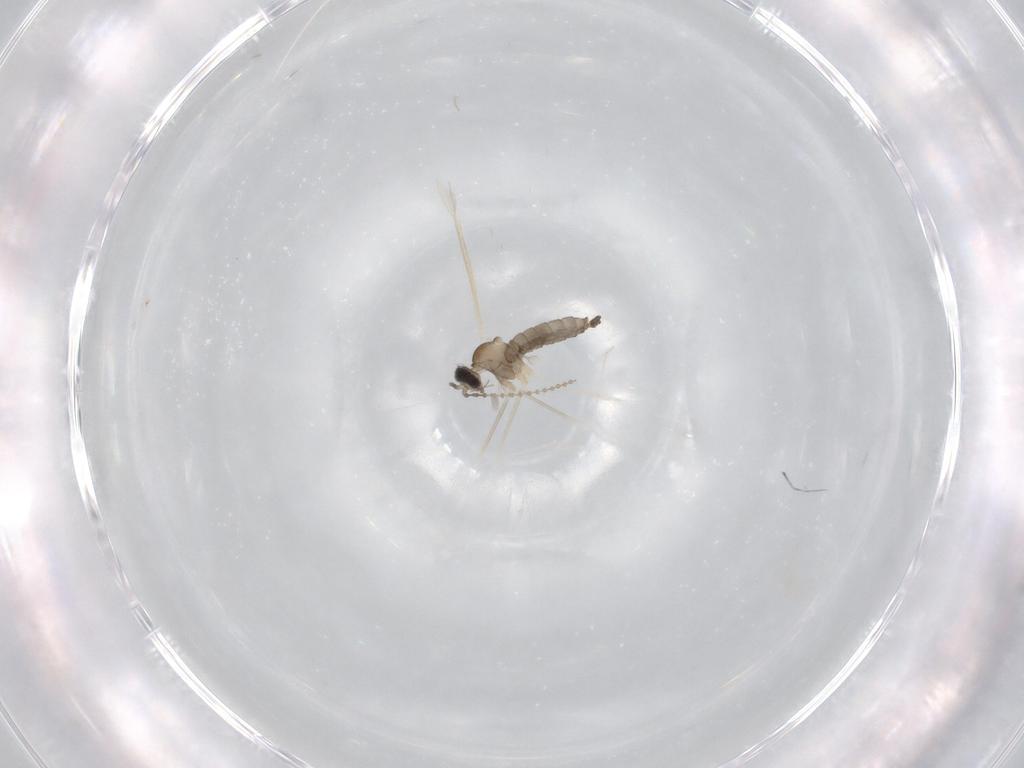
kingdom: Animalia
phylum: Arthropoda
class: Insecta
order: Diptera
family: Cecidomyiidae
